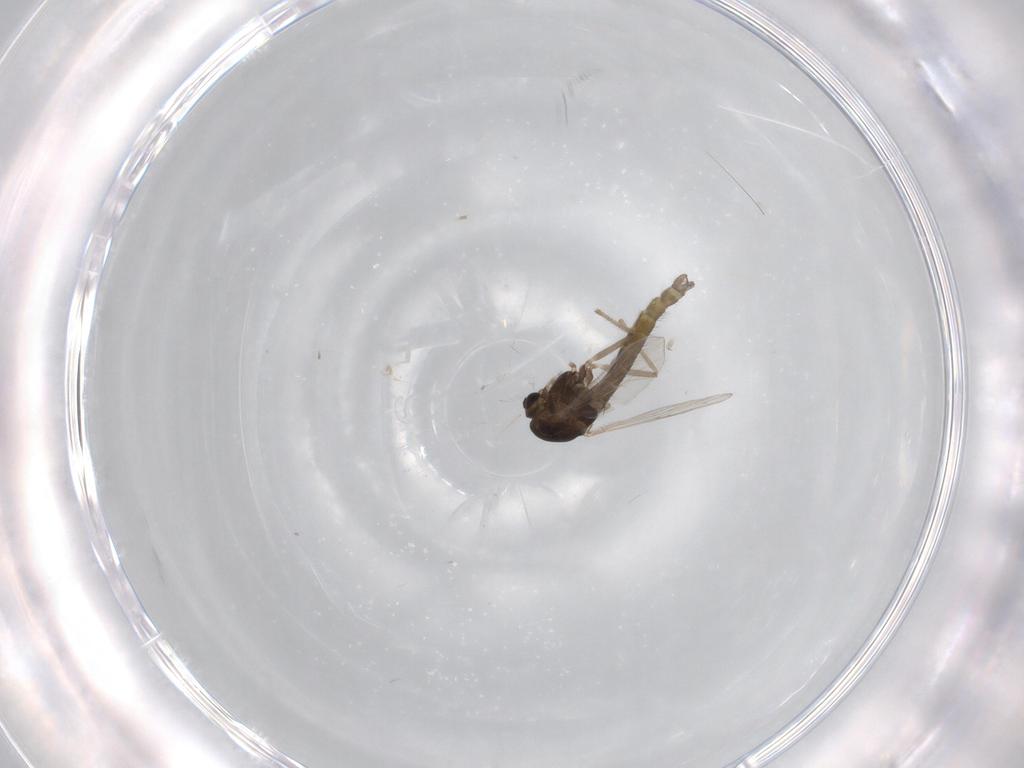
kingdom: Animalia
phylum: Arthropoda
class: Insecta
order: Diptera
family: Chironomidae
